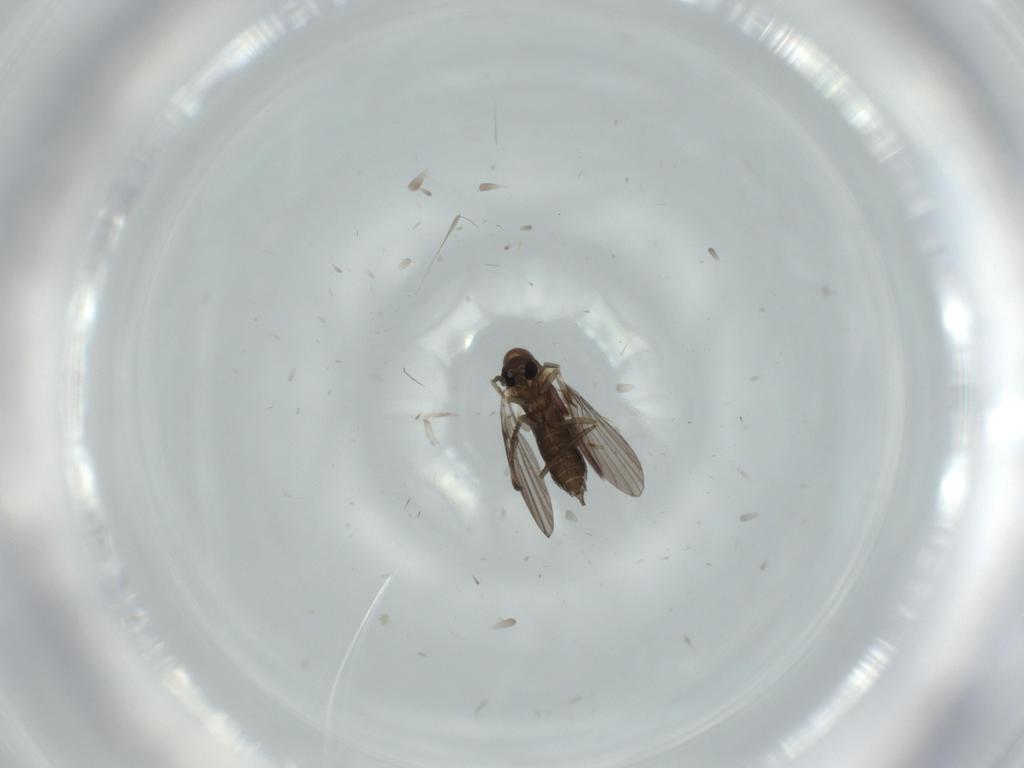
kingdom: Animalia
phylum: Arthropoda
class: Insecta
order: Diptera
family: Sciaridae
